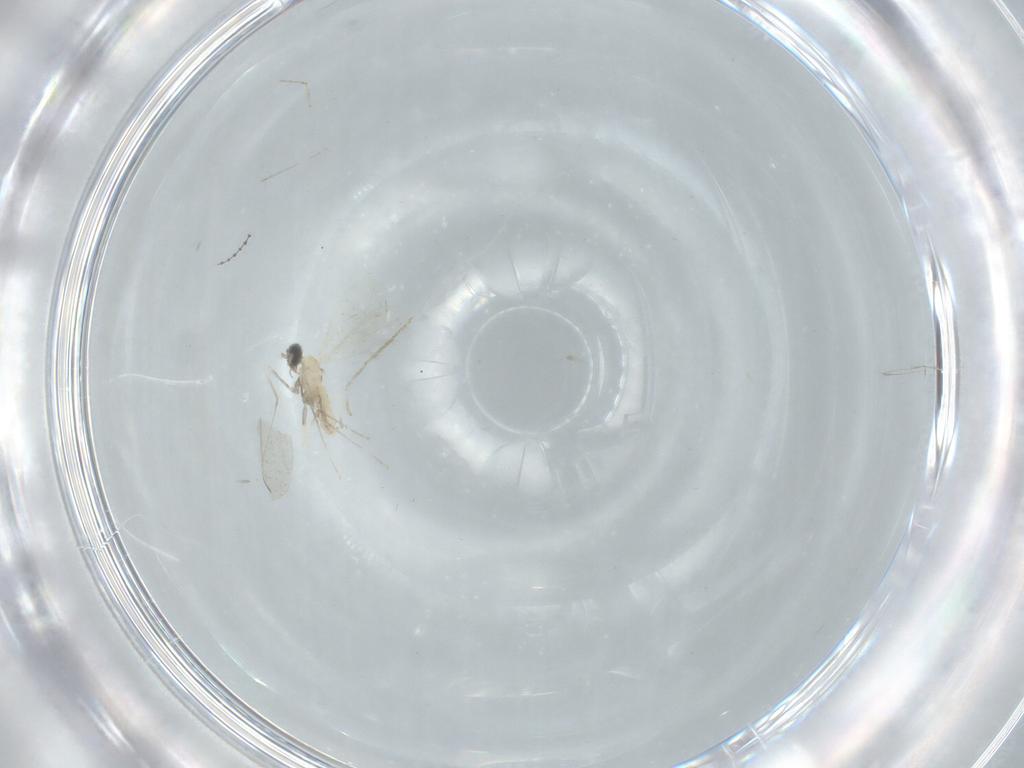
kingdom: Animalia
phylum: Arthropoda
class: Insecta
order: Diptera
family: Cecidomyiidae
